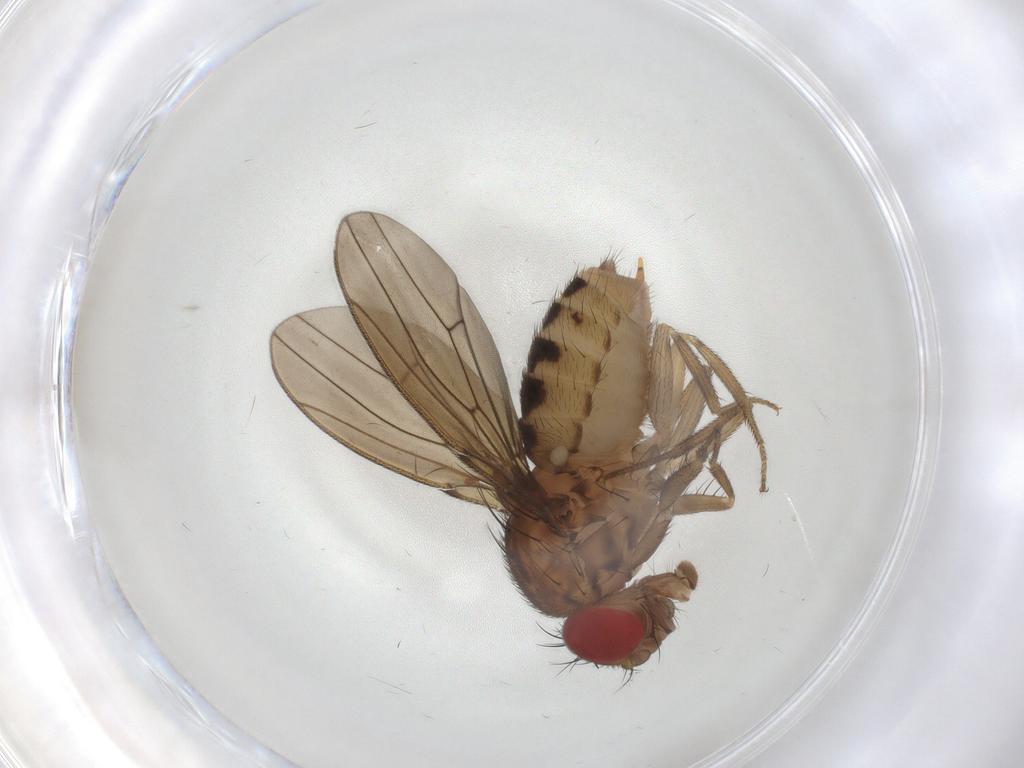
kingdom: Animalia
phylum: Arthropoda
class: Insecta
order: Diptera
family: Drosophilidae
